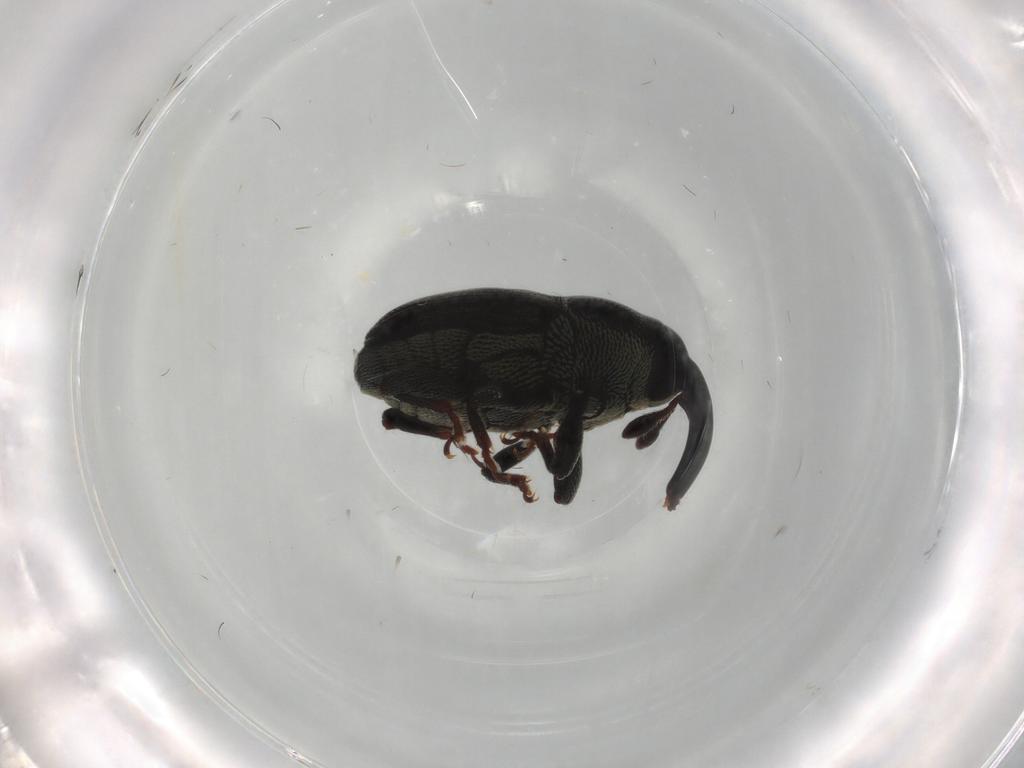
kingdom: Animalia
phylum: Arthropoda
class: Insecta
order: Coleoptera
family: Curculionidae
